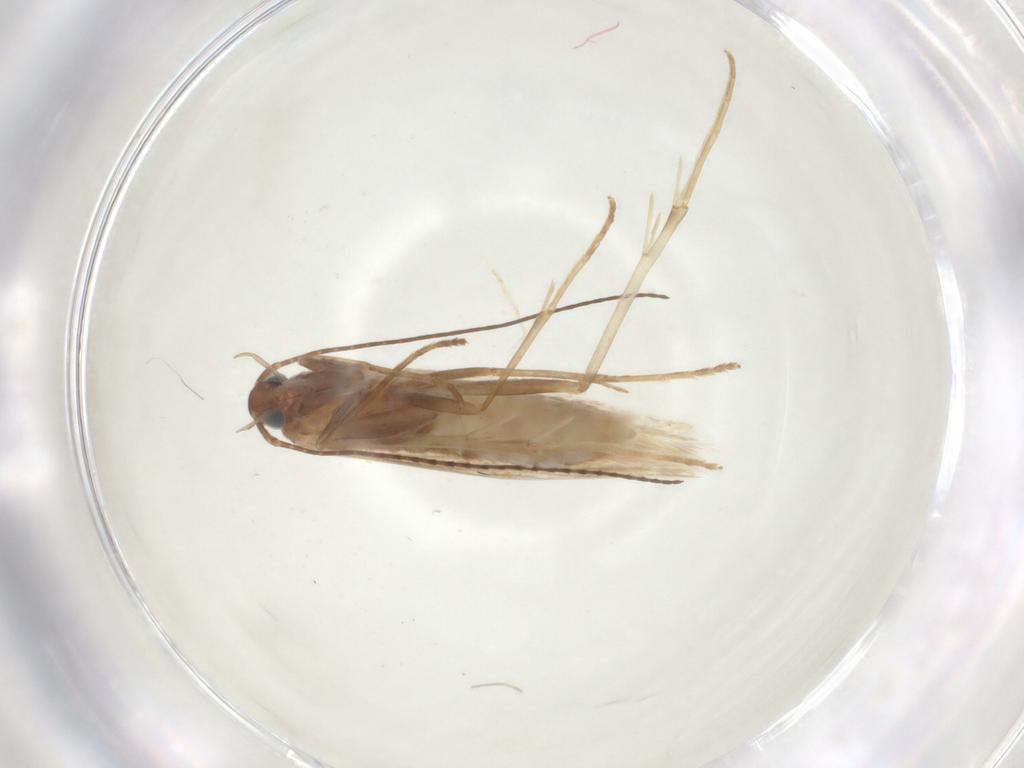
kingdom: Animalia
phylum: Arthropoda
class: Insecta
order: Lepidoptera
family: Coleophoridae
